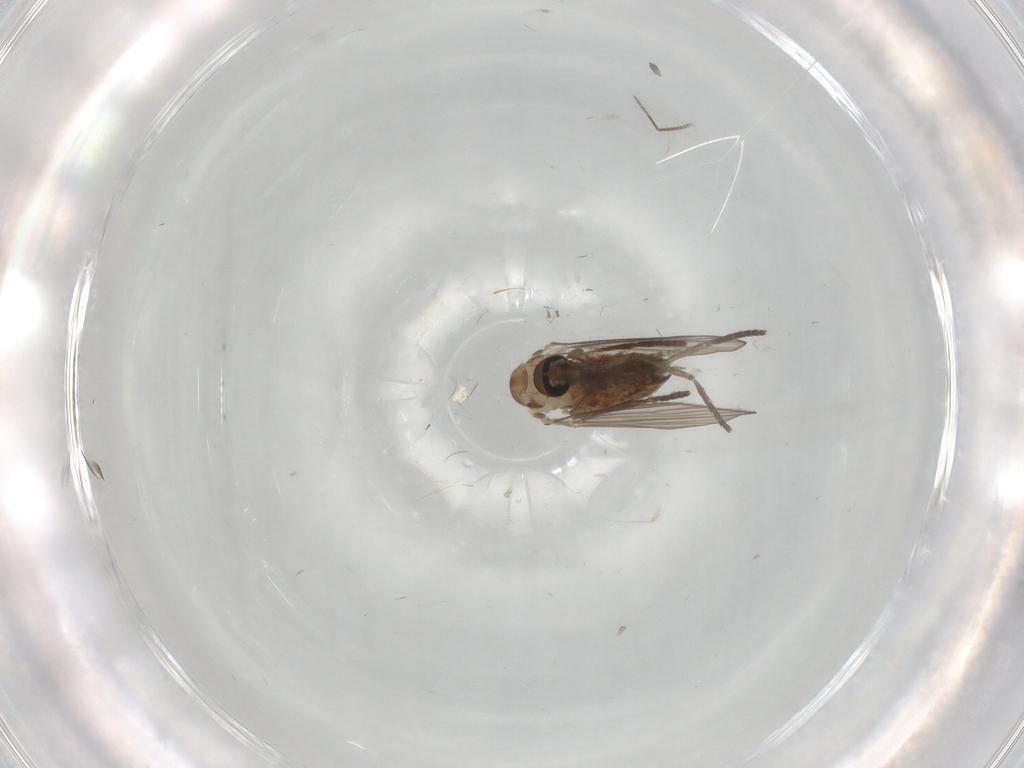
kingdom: Animalia
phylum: Arthropoda
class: Insecta
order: Diptera
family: Psychodidae
